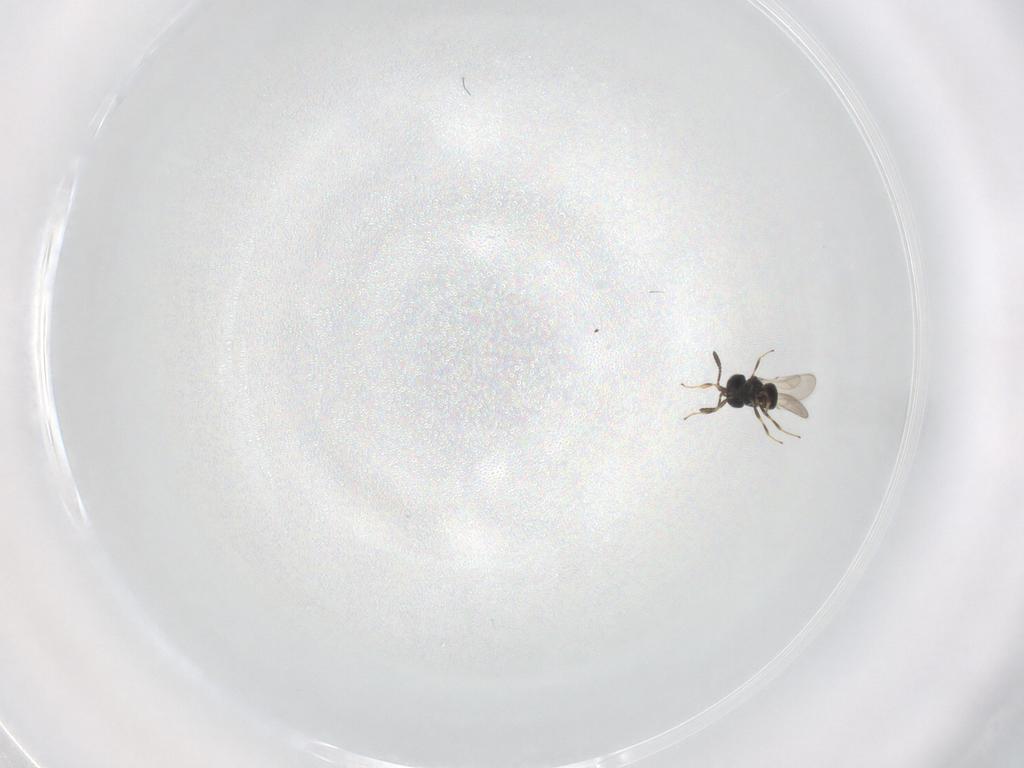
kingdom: Animalia
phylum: Arthropoda
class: Insecta
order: Hymenoptera
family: Scelionidae
